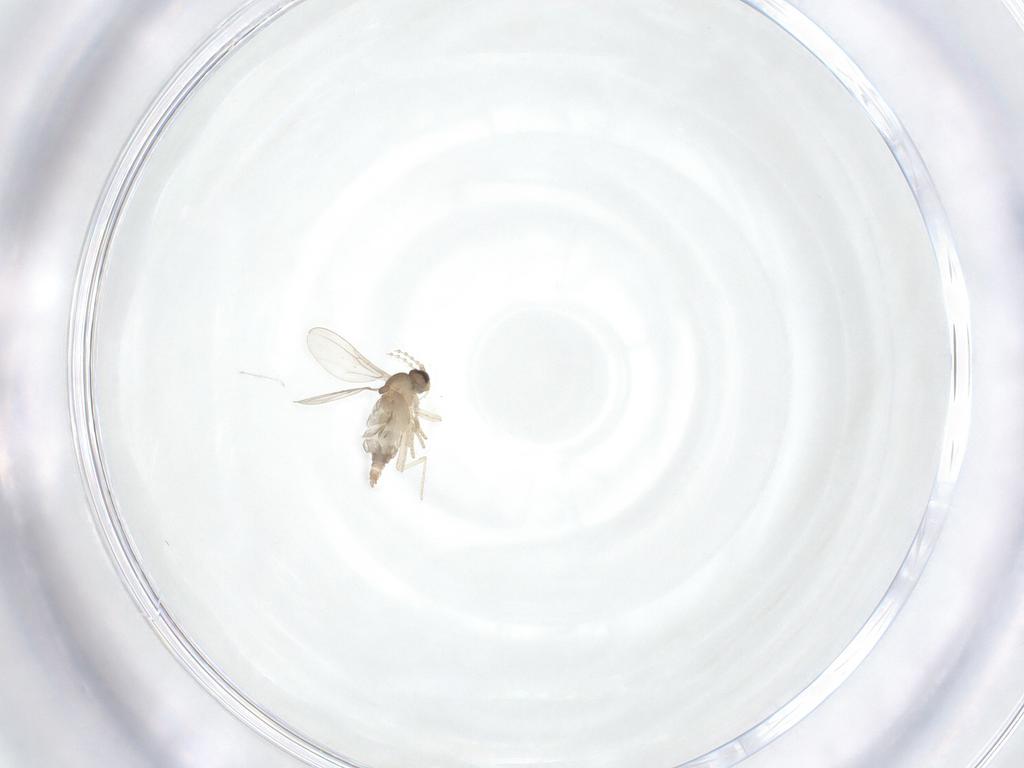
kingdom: Animalia
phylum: Arthropoda
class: Insecta
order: Diptera
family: Cecidomyiidae
